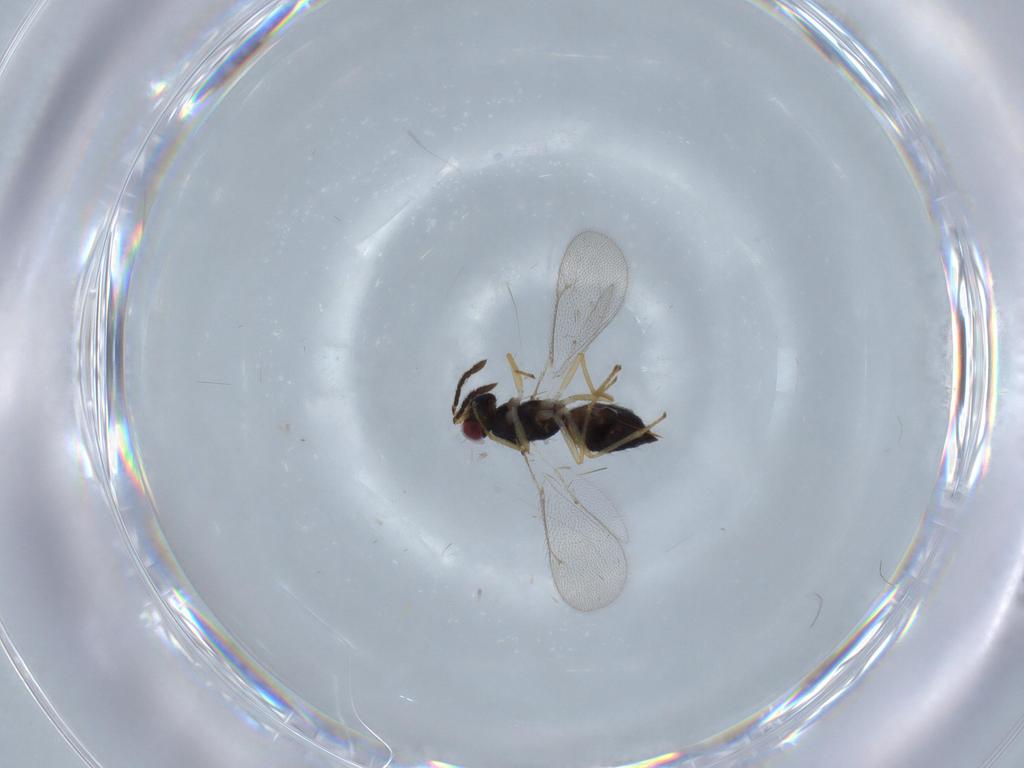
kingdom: Animalia
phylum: Arthropoda
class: Insecta
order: Hymenoptera
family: Eulophidae
